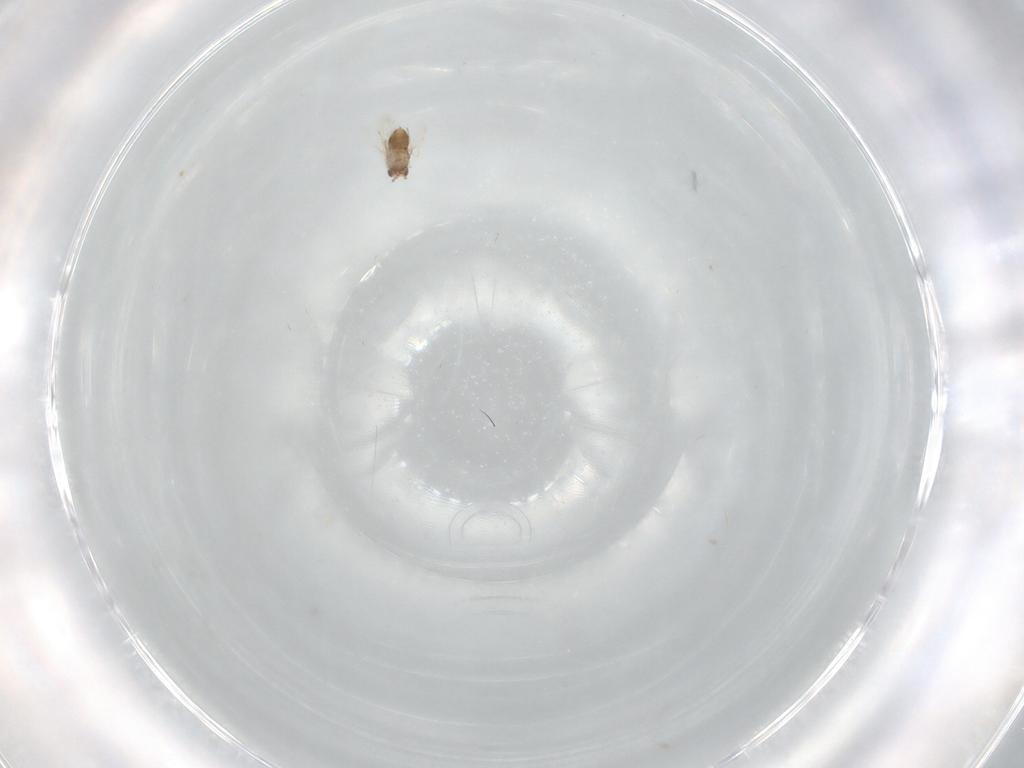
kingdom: Animalia
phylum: Arthropoda
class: Insecta
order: Hymenoptera
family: Aphelinidae
